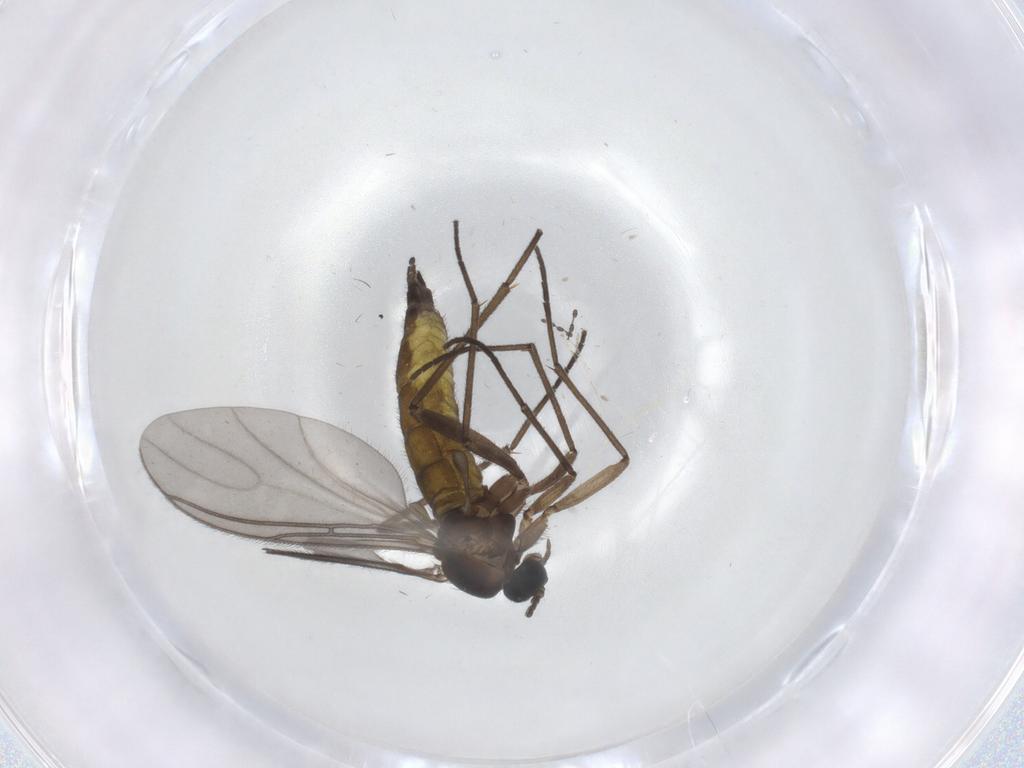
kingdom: Animalia
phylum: Arthropoda
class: Insecta
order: Diptera
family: Sciaridae
